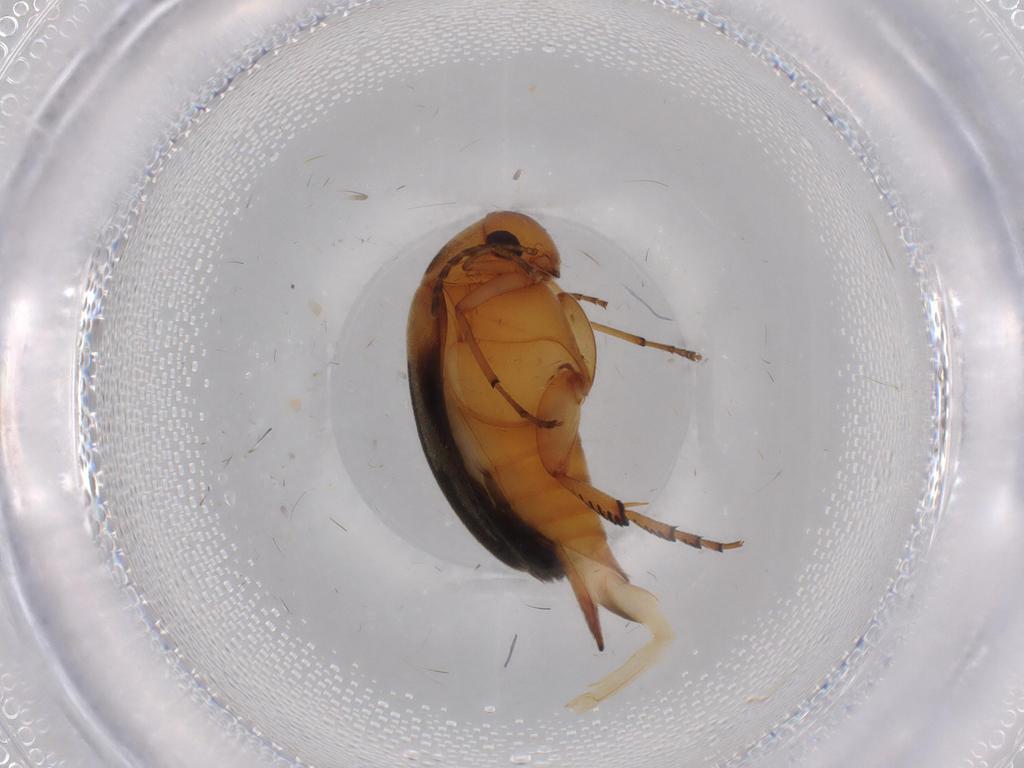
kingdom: Animalia
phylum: Arthropoda
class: Insecta
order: Coleoptera
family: Mordellidae
